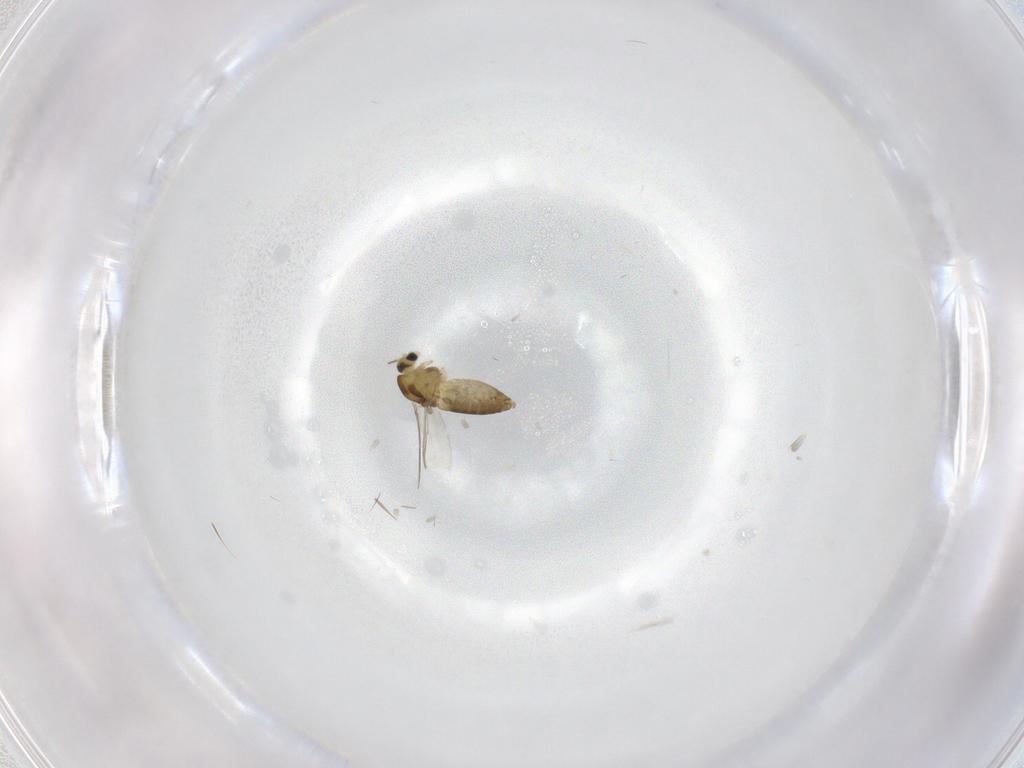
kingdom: Animalia
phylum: Arthropoda
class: Insecta
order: Diptera
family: Chironomidae
